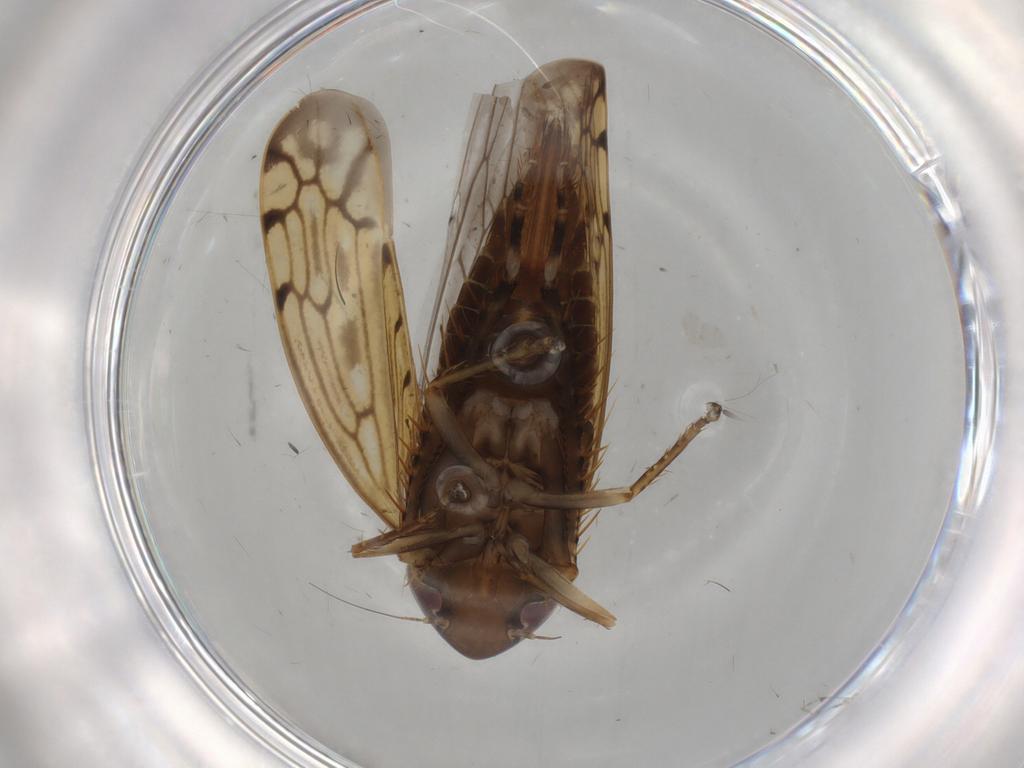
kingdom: Animalia
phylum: Arthropoda
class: Insecta
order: Hemiptera
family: Cicadellidae
